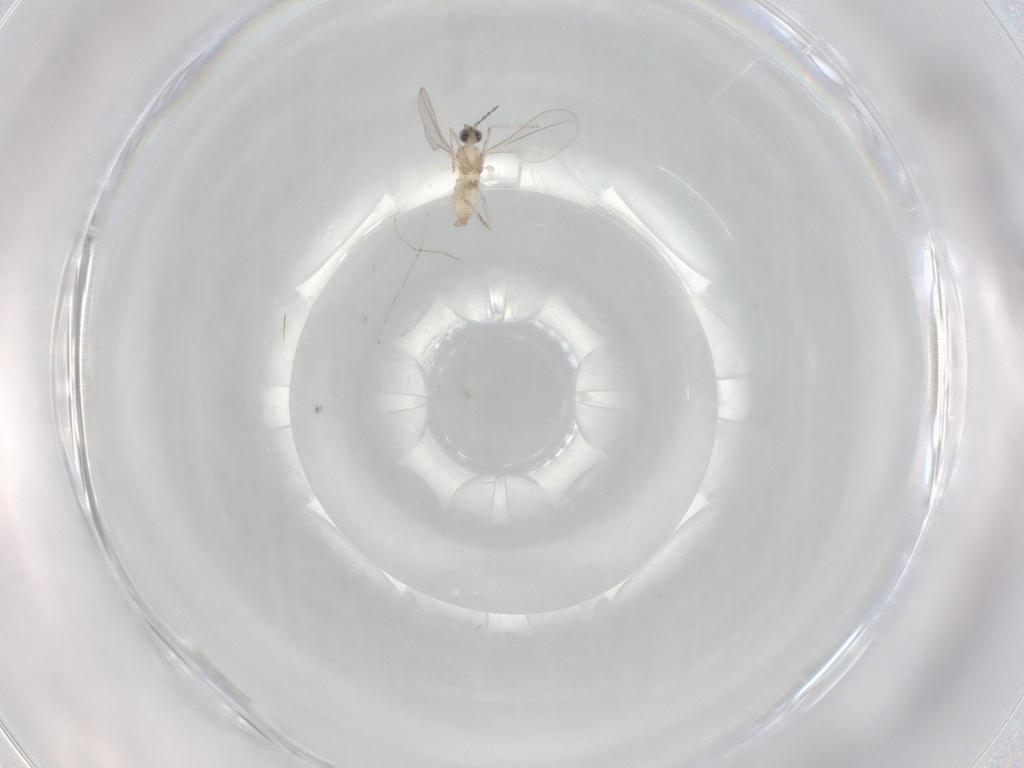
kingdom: Animalia
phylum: Arthropoda
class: Insecta
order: Diptera
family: Cecidomyiidae
